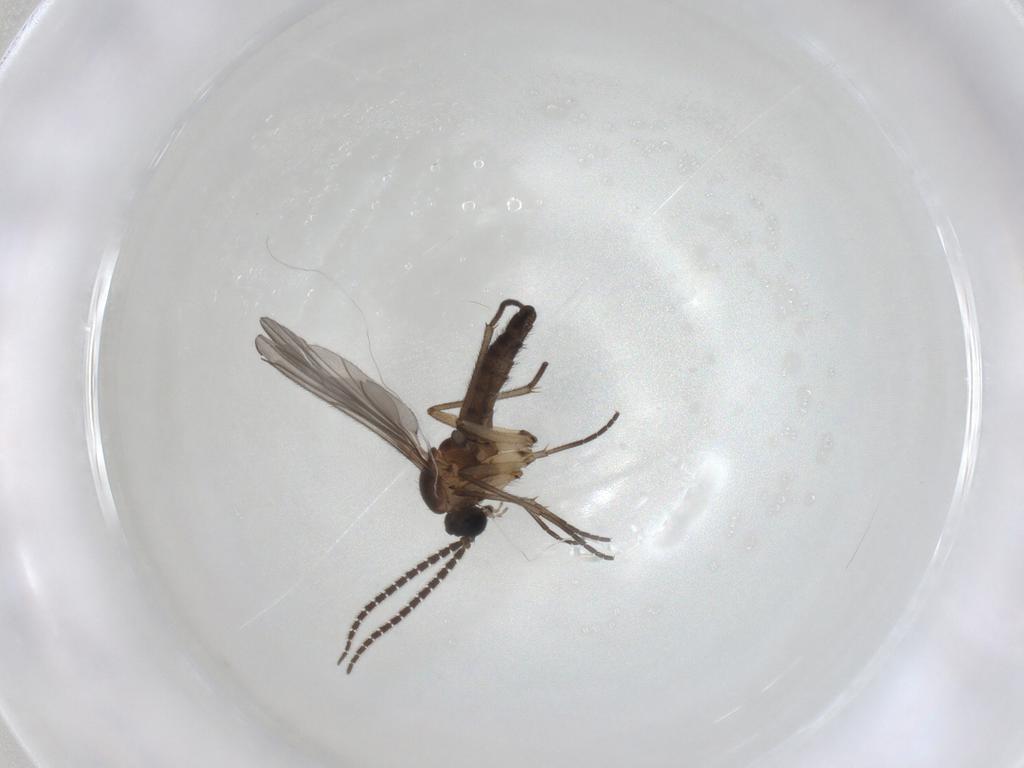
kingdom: Animalia
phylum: Arthropoda
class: Insecta
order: Diptera
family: Sciaridae
